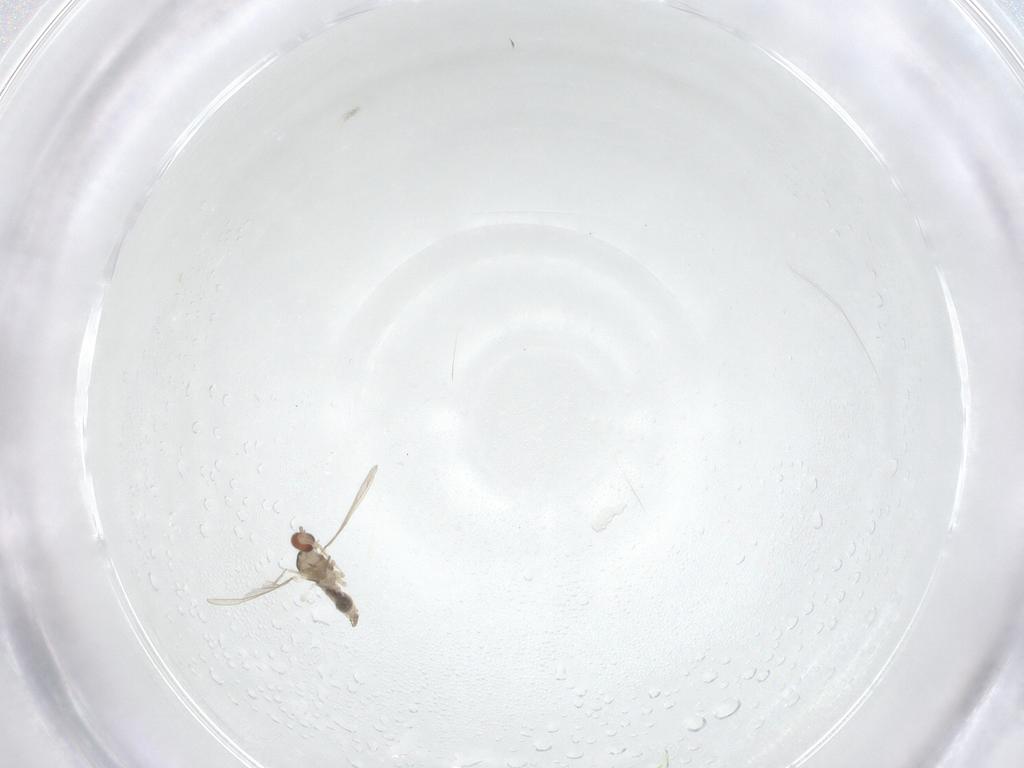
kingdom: Animalia
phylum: Arthropoda
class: Insecta
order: Diptera
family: Cecidomyiidae
